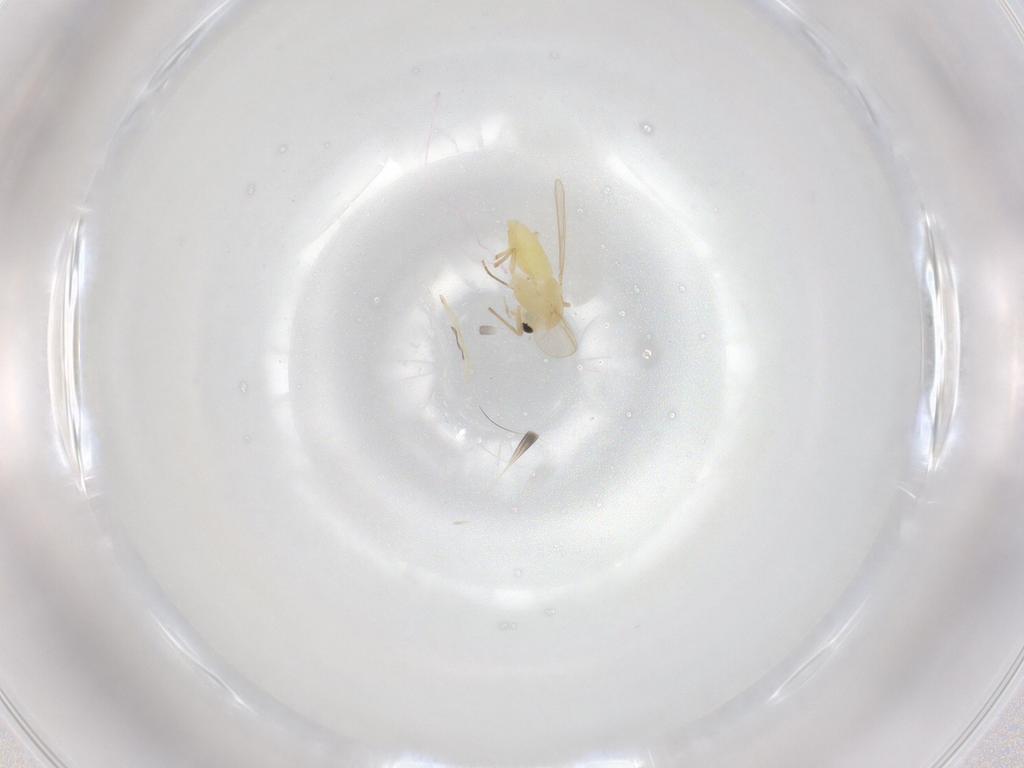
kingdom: Animalia
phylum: Arthropoda
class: Insecta
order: Diptera
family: Chironomidae
